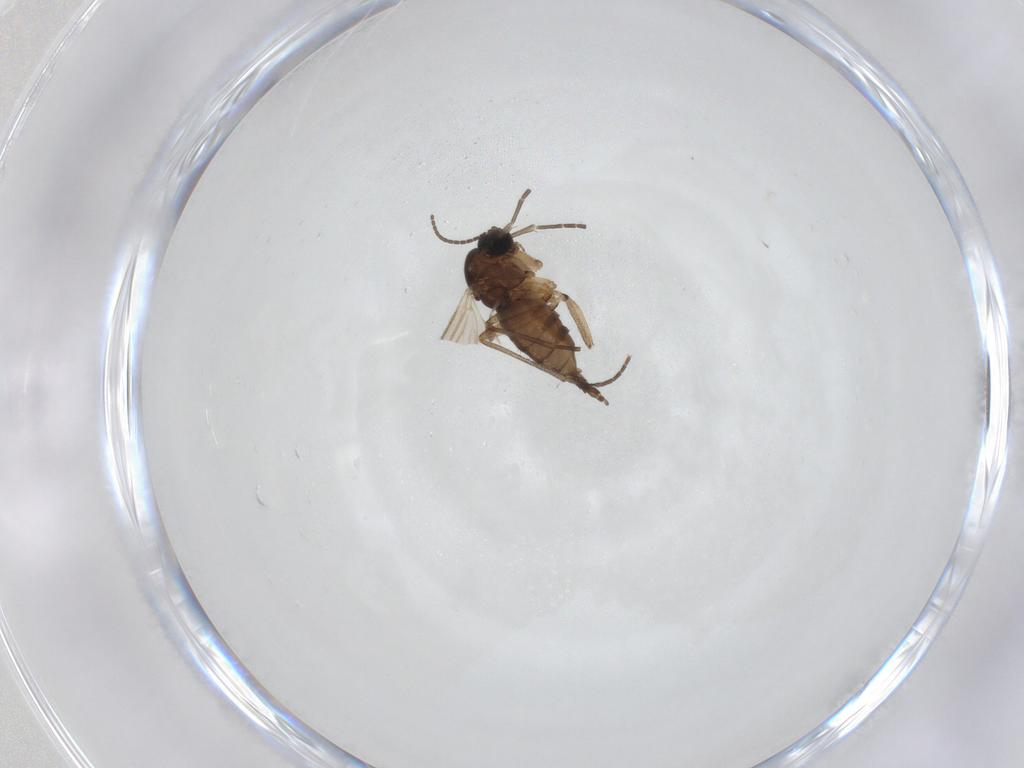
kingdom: Animalia
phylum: Arthropoda
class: Insecta
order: Diptera
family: Sciaridae
